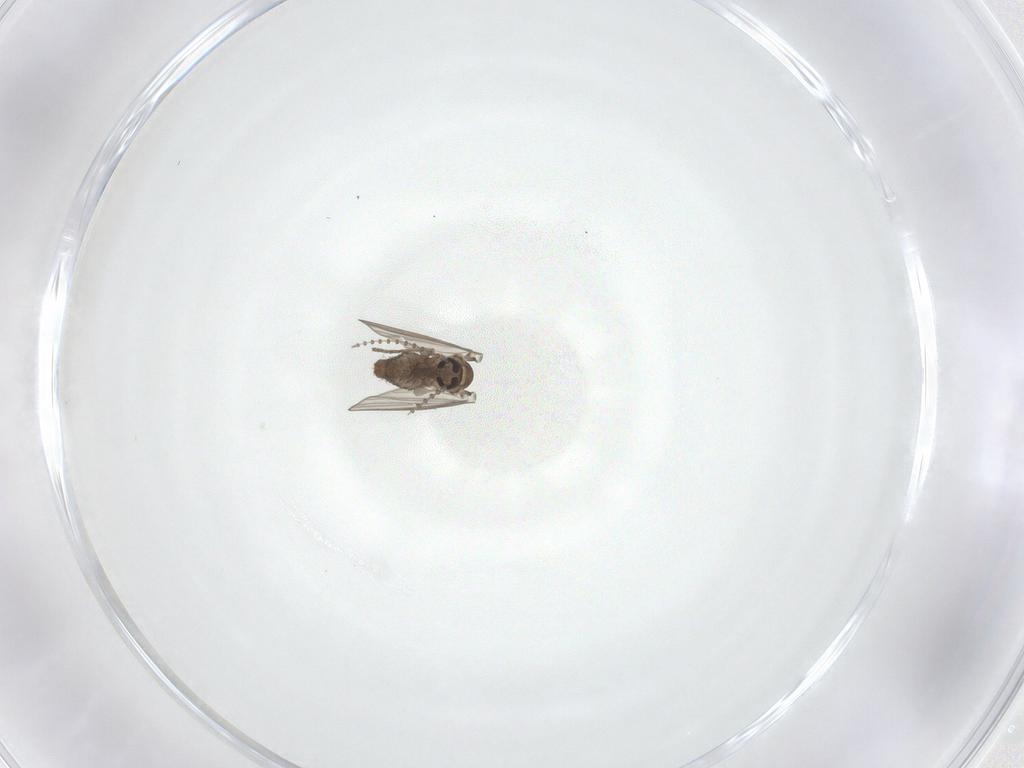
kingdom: Animalia
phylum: Arthropoda
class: Insecta
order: Diptera
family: Psychodidae
